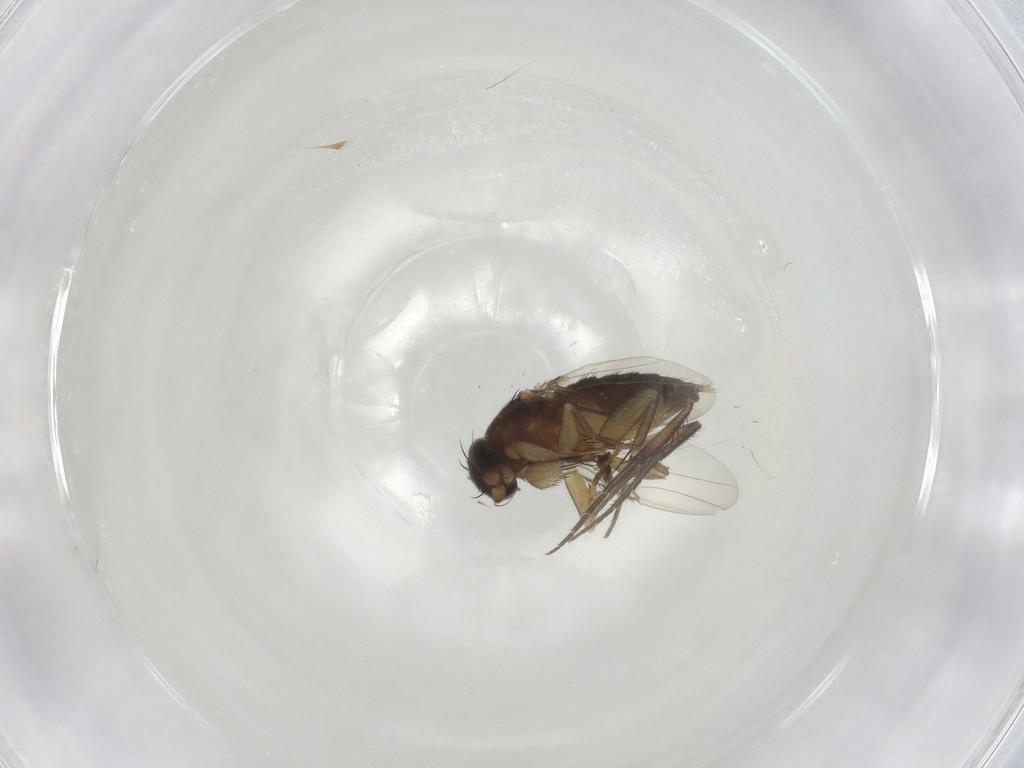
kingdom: Animalia
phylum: Arthropoda
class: Insecta
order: Diptera
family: Phoridae
